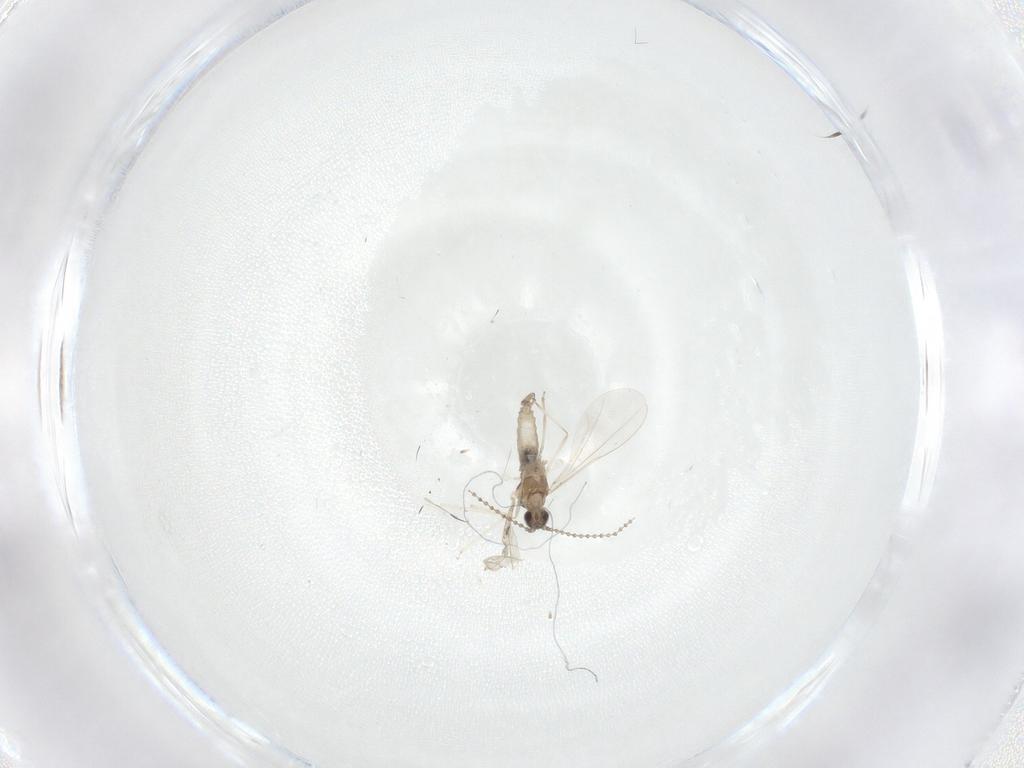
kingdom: Animalia
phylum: Arthropoda
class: Insecta
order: Diptera
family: Cecidomyiidae
